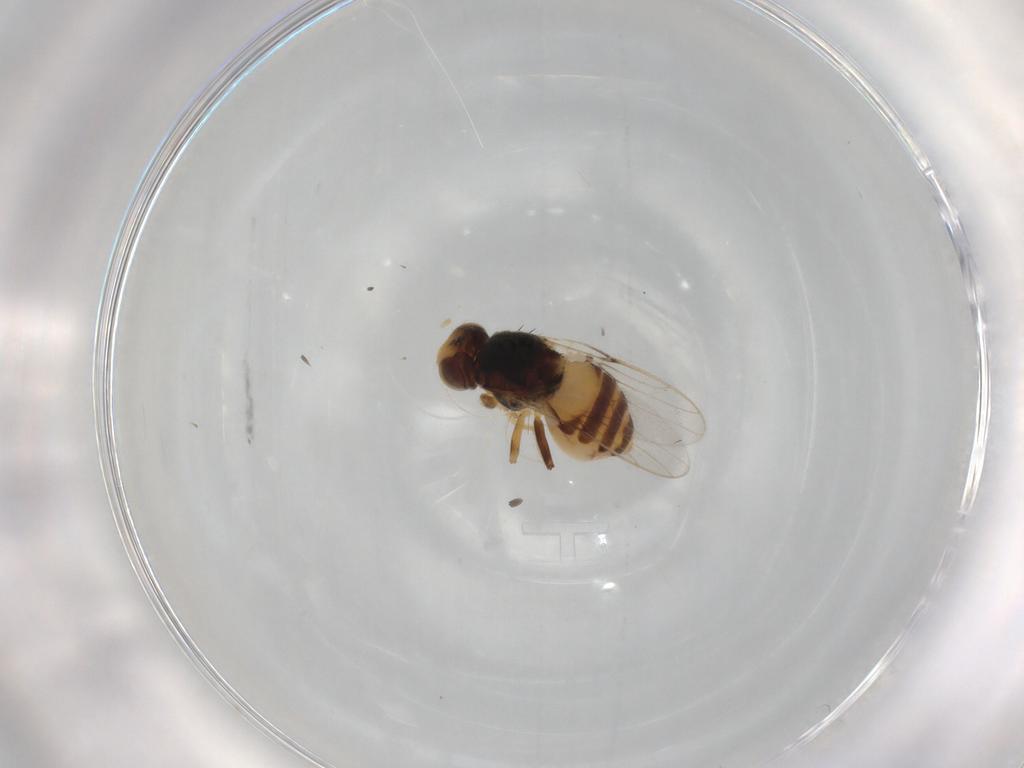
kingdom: Animalia
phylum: Arthropoda
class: Insecta
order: Diptera
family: Chloropidae
